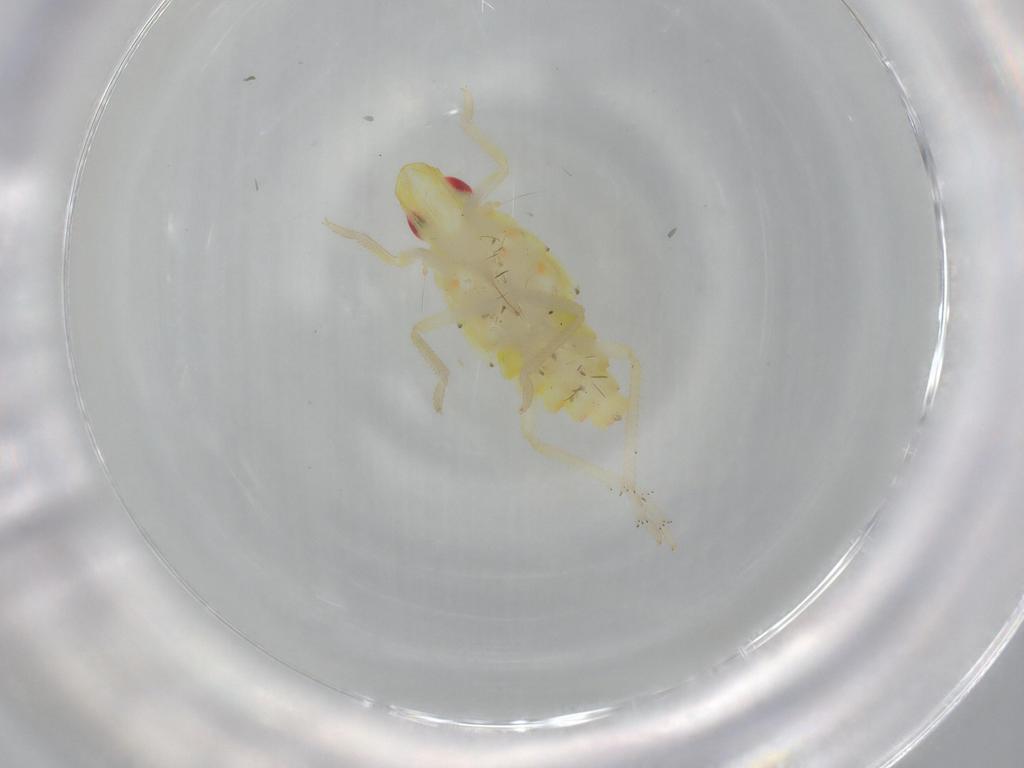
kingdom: Animalia
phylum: Arthropoda
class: Insecta
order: Hemiptera
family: Tropiduchidae
